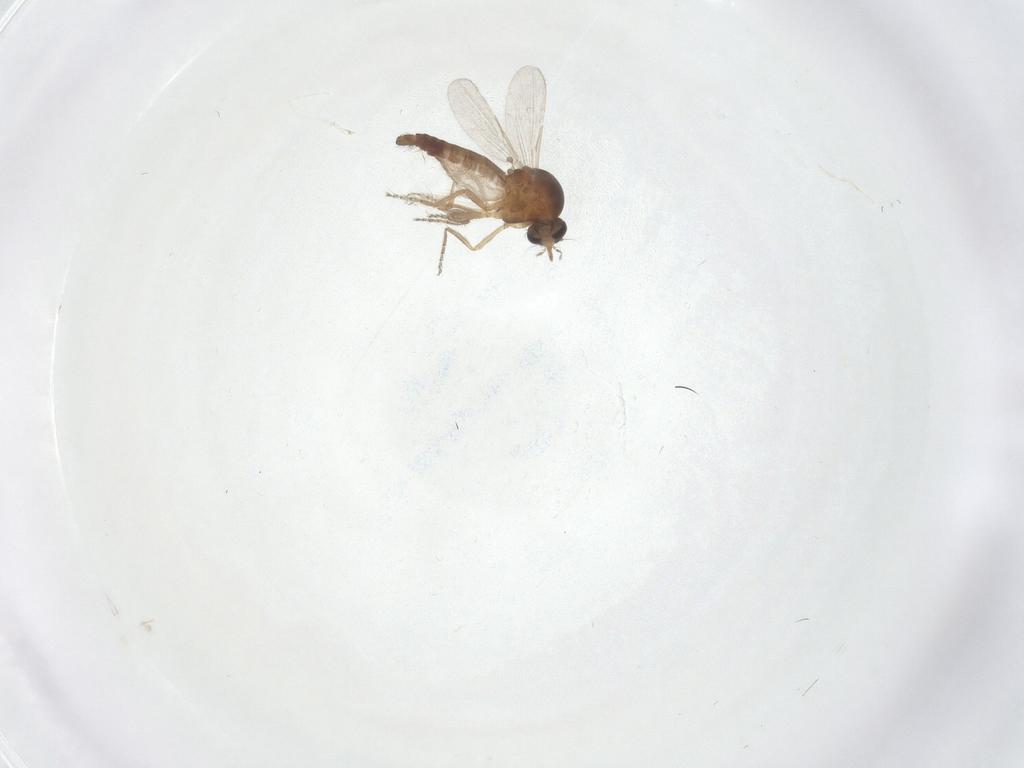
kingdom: Animalia
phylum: Arthropoda
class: Insecta
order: Diptera
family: Ceratopogonidae
